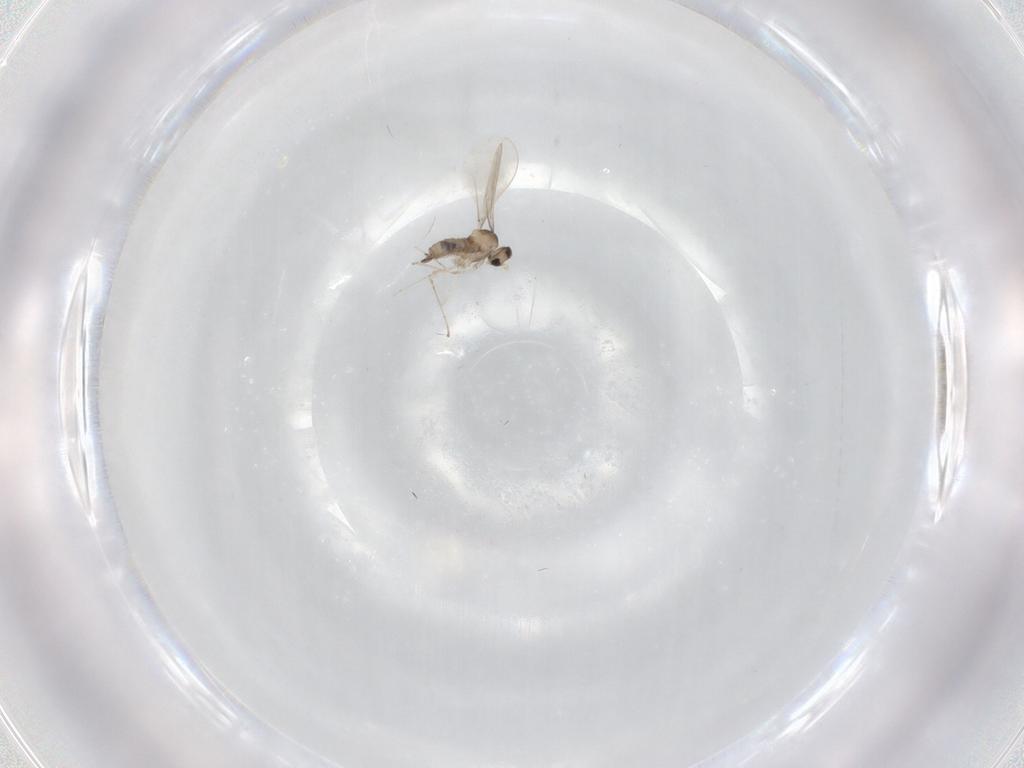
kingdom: Animalia
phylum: Arthropoda
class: Insecta
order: Diptera
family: Cecidomyiidae
